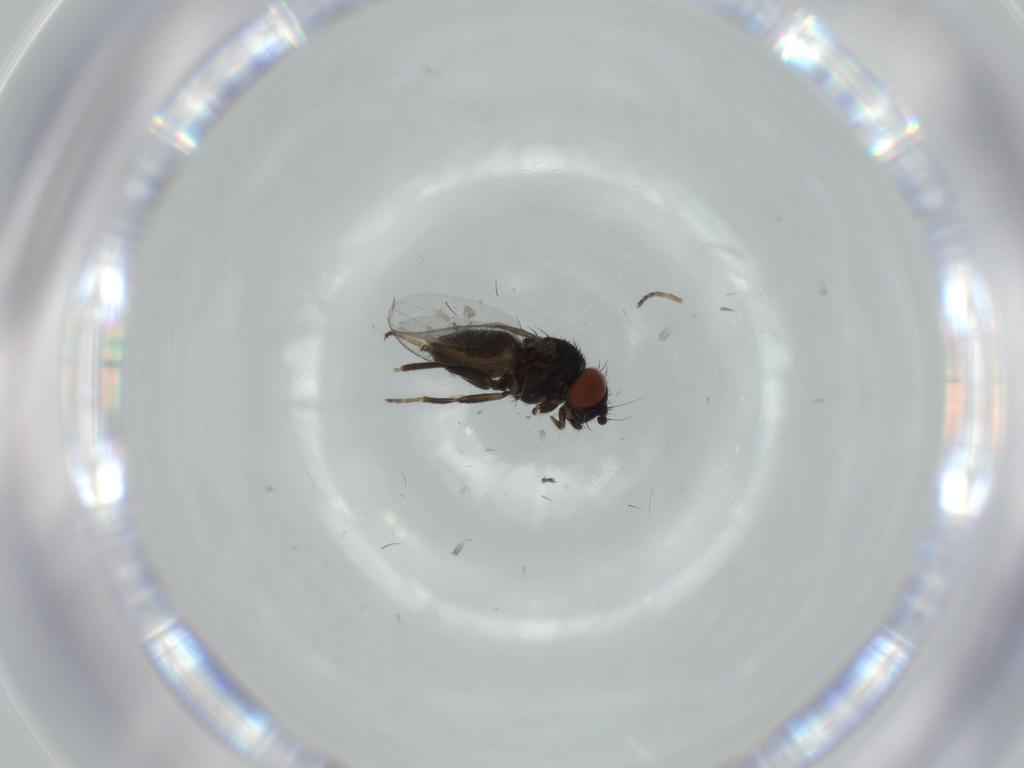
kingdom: Animalia
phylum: Arthropoda
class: Insecta
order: Diptera
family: Milichiidae
